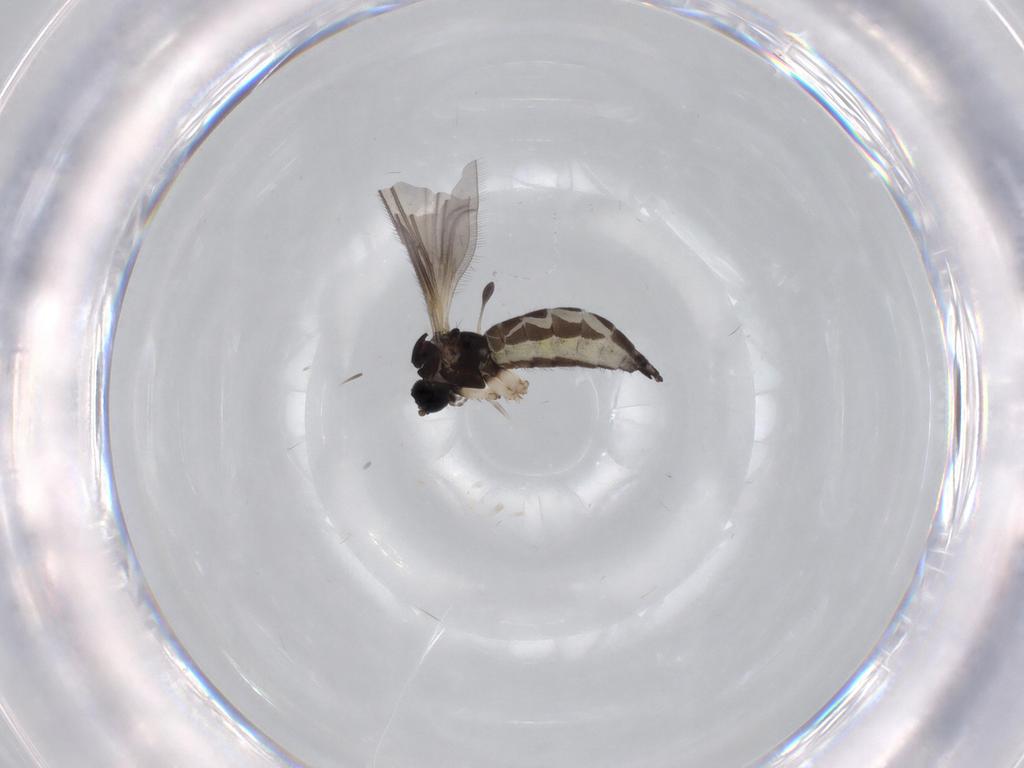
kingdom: Animalia
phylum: Arthropoda
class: Insecta
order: Diptera
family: Sciaridae
